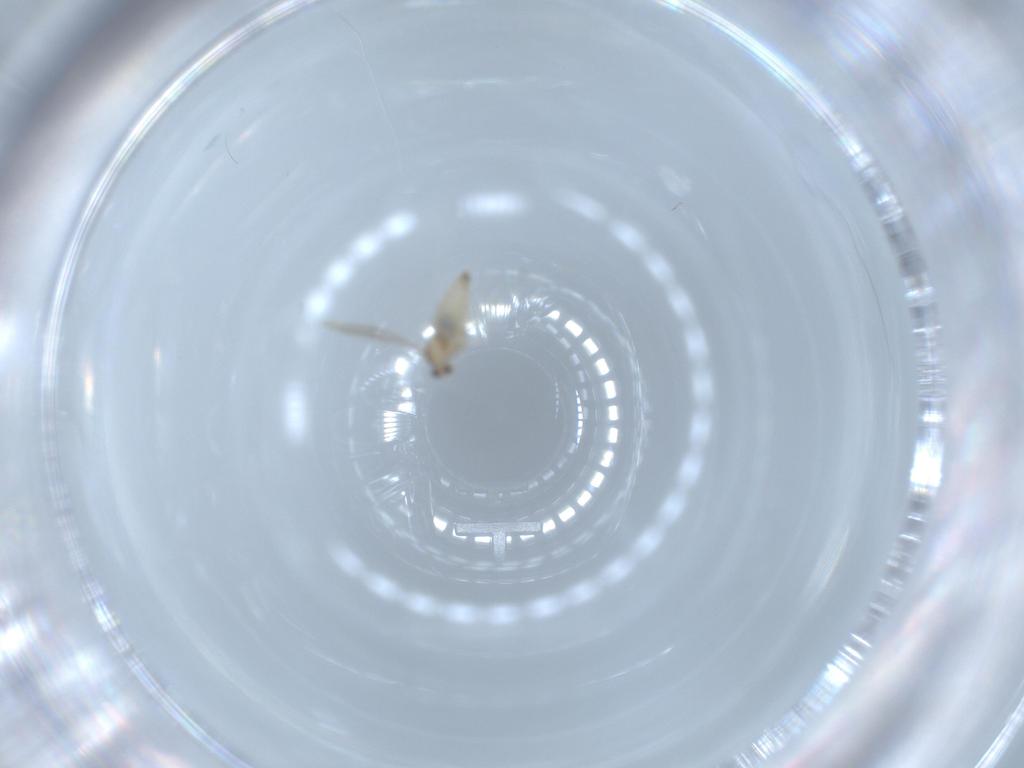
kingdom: Animalia
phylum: Arthropoda
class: Insecta
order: Diptera
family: Cecidomyiidae
